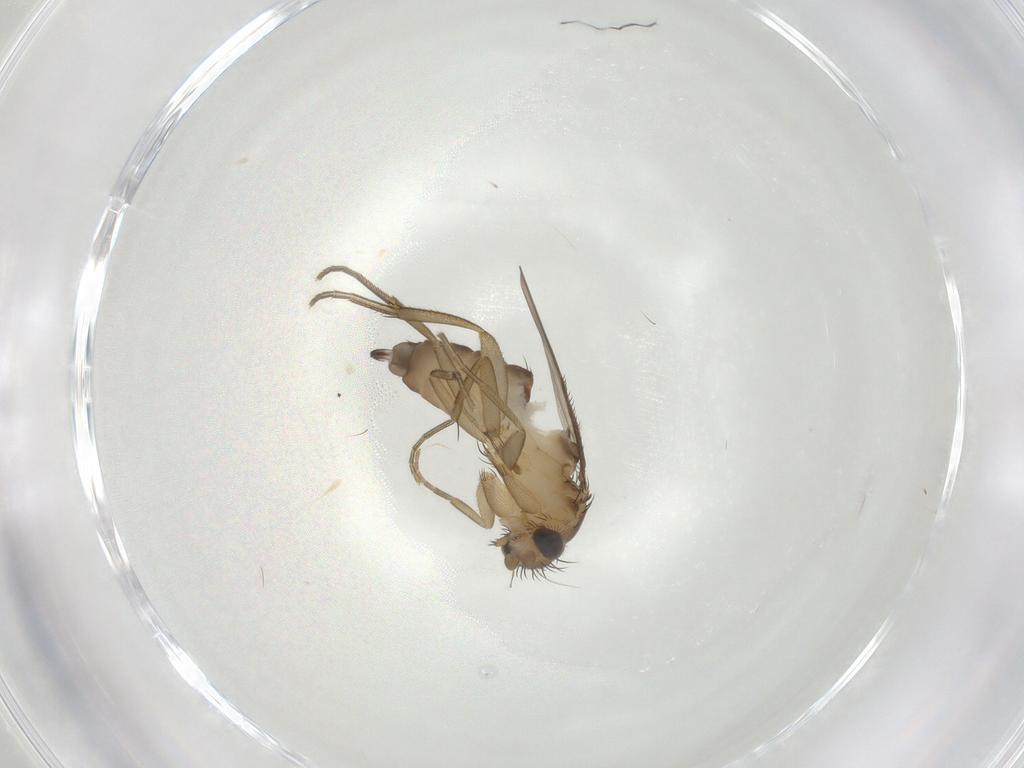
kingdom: Animalia
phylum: Arthropoda
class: Insecta
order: Diptera
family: Phoridae
